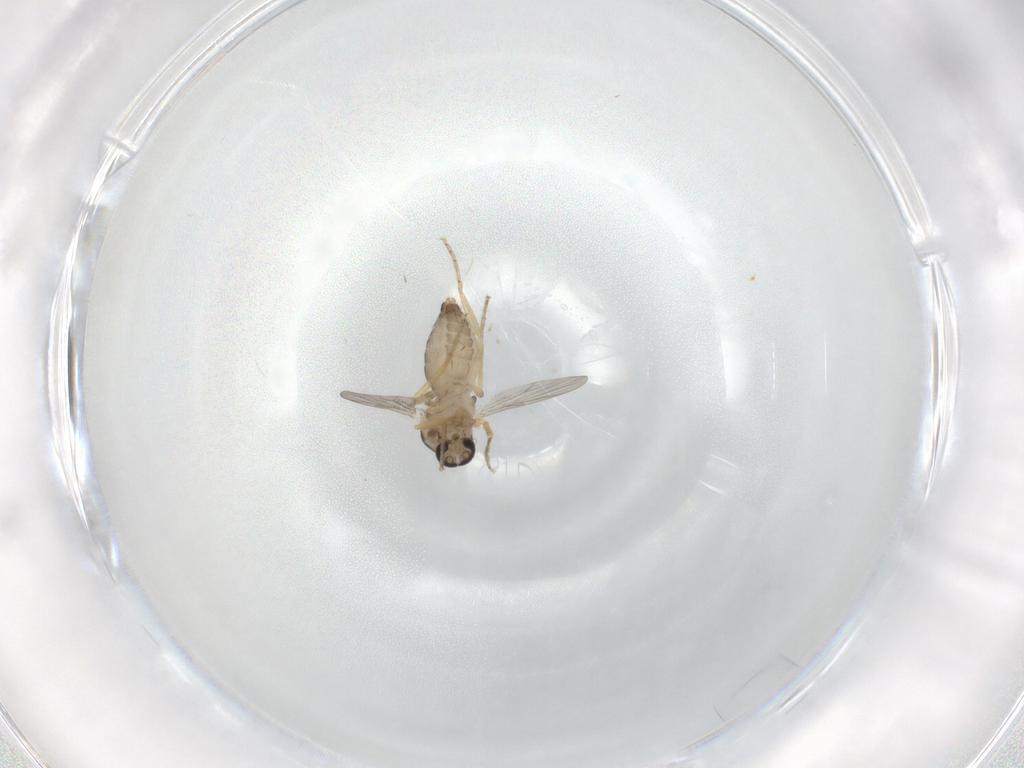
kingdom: Animalia
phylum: Arthropoda
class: Insecta
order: Diptera
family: Ceratopogonidae
